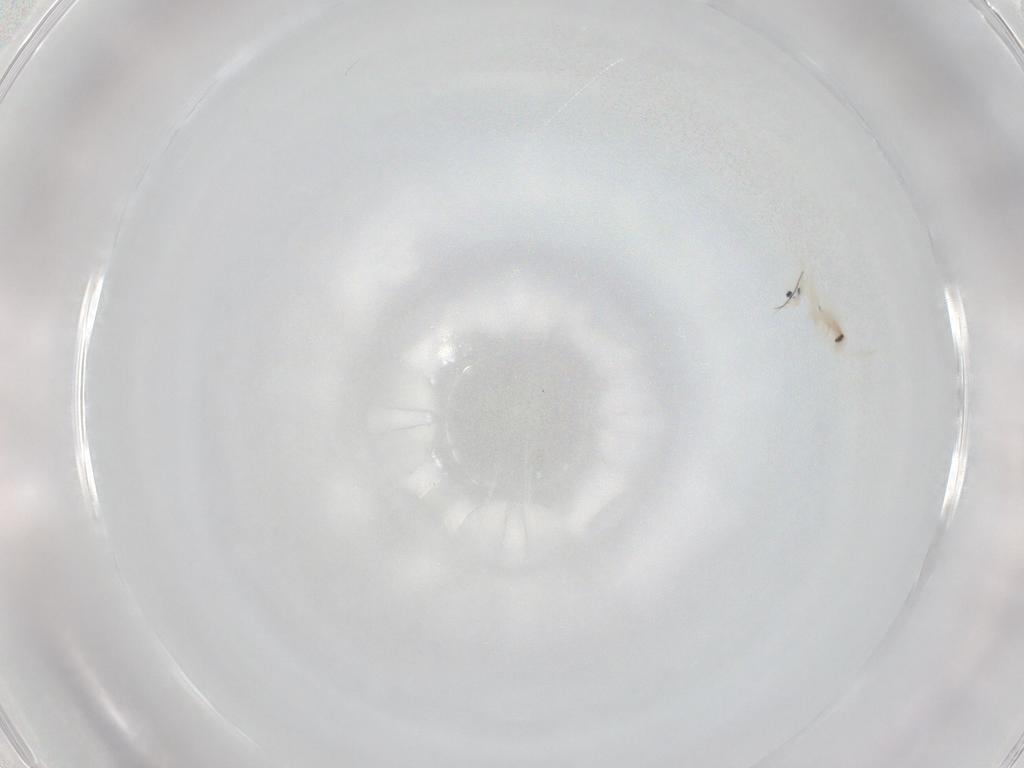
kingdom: Animalia
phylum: Arthropoda
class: Collembola
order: Entomobryomorpha
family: Entomobryidae
